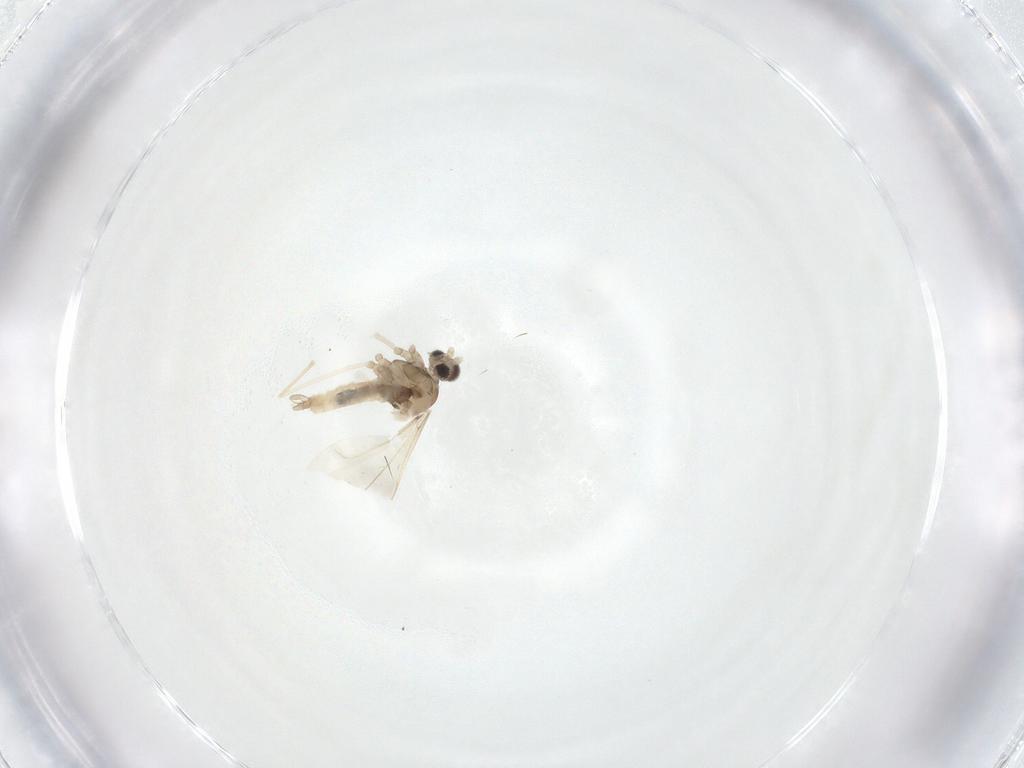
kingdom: Animalia
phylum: Arthropoda
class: Insecta
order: Diptera
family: Cecidomyiidae
